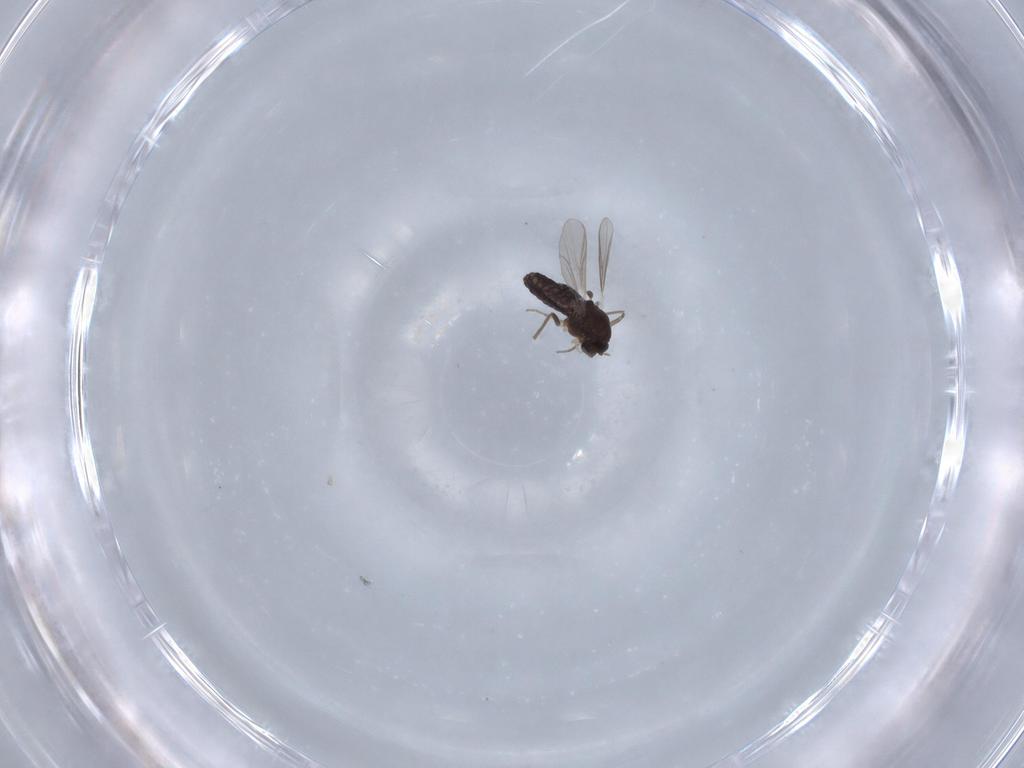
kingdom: Animalia
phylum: Arthropoda
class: Insecta
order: Diptera
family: Chironomidae
